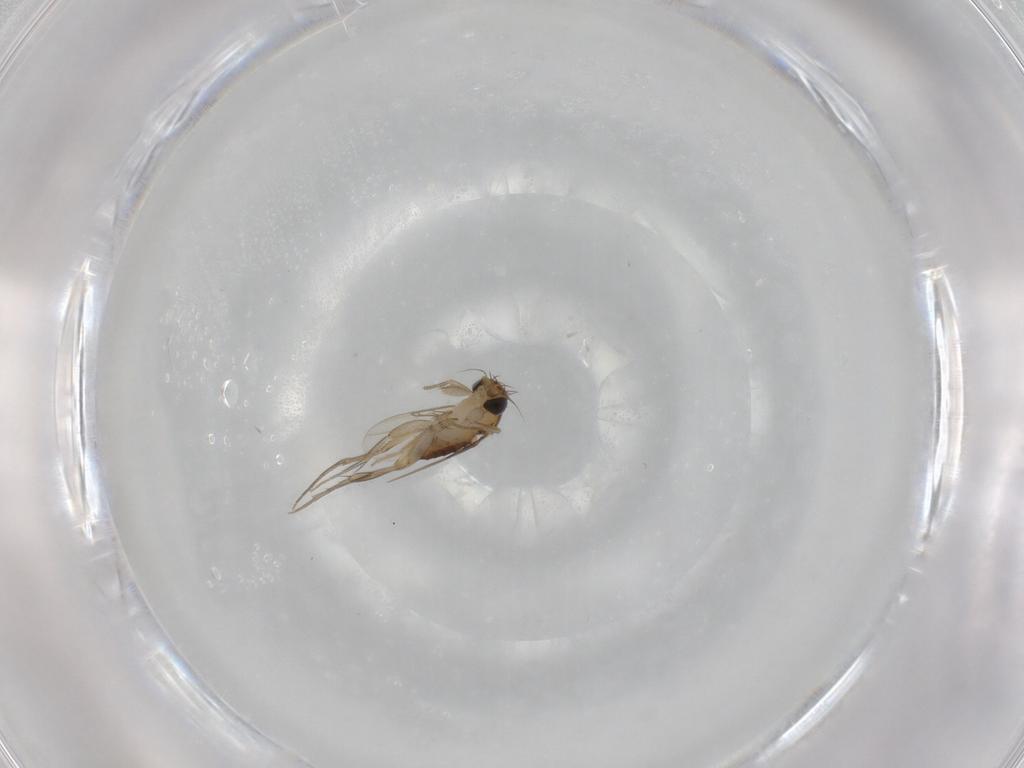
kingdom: Animalia
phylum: Arthropoda
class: Insecta
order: Diptera
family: Phoridae
